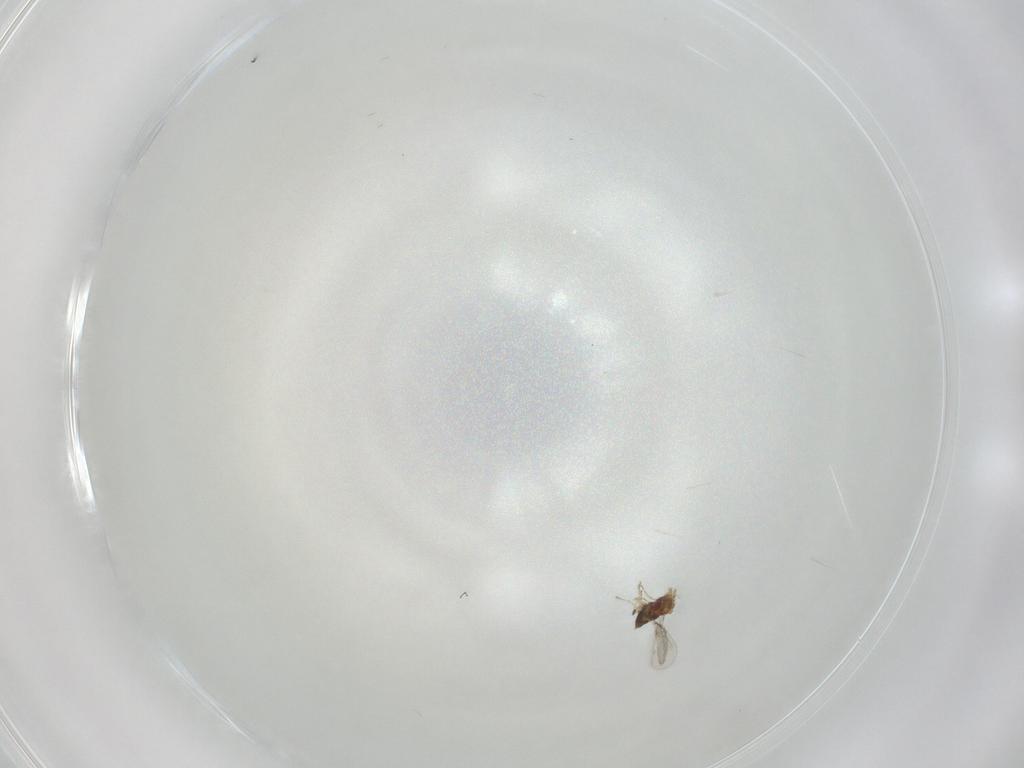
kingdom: Animalia
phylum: Arthropoda
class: Insecta
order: Hymenoptera
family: Trichogrammatidae
